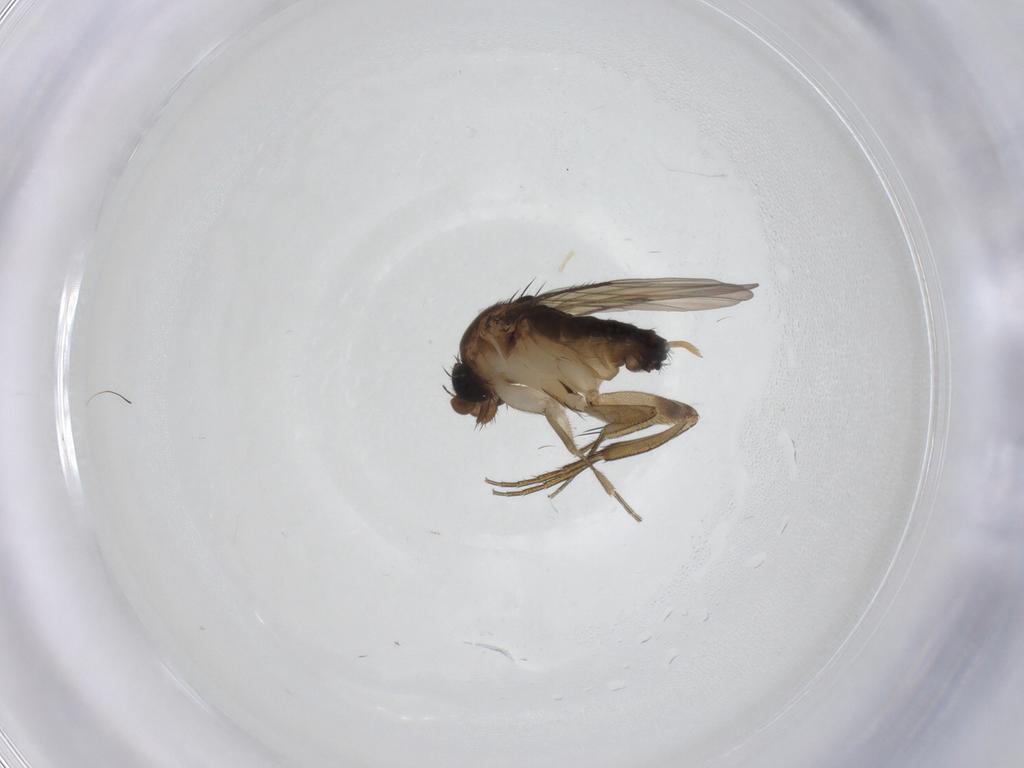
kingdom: Animalia
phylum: Arthropoda
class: Insecta
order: Diptera
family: Phoridae
